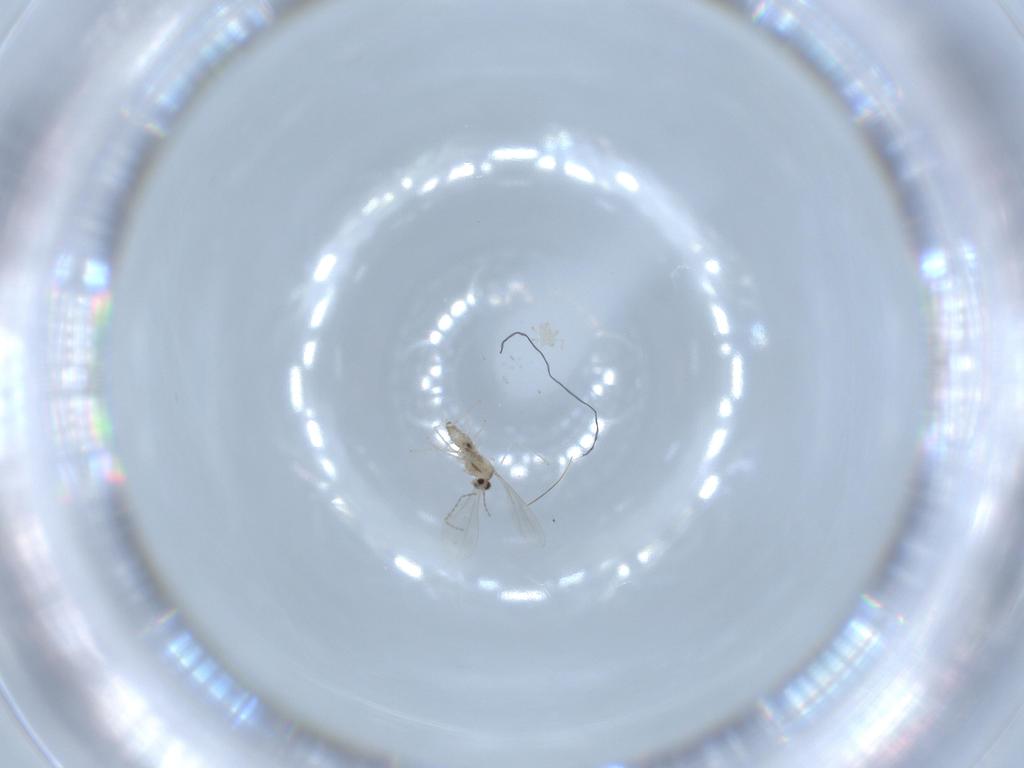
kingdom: Animalia
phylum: Arthropoda
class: Insecta
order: Diptera
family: Cecidomyiidae
